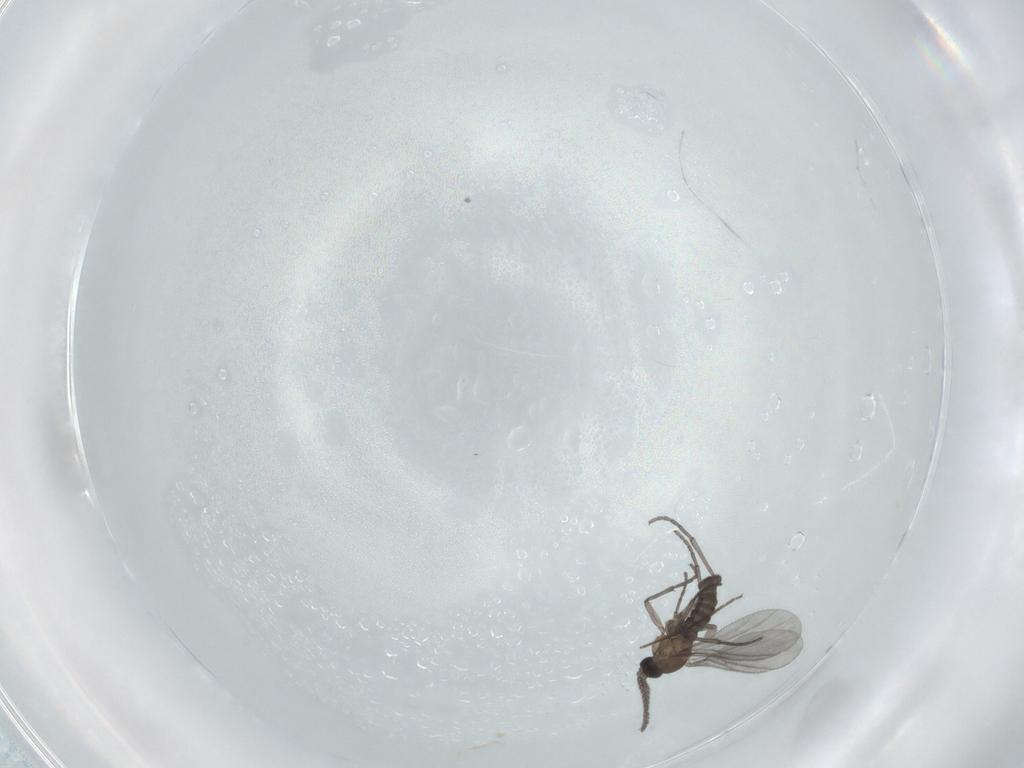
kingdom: Animalia
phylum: Arthropoda
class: Insecta
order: Diptera
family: Sciaridae
